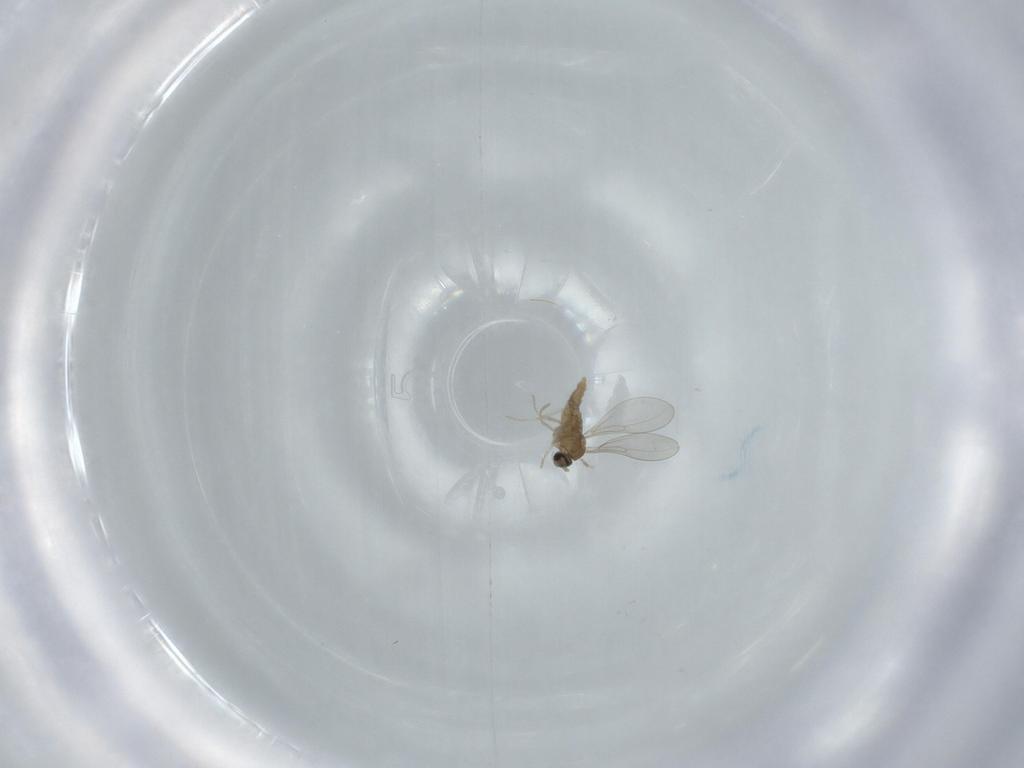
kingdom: Animalia
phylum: Arthropoda
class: Insecta
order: Diptera
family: Cecidomyiidae
